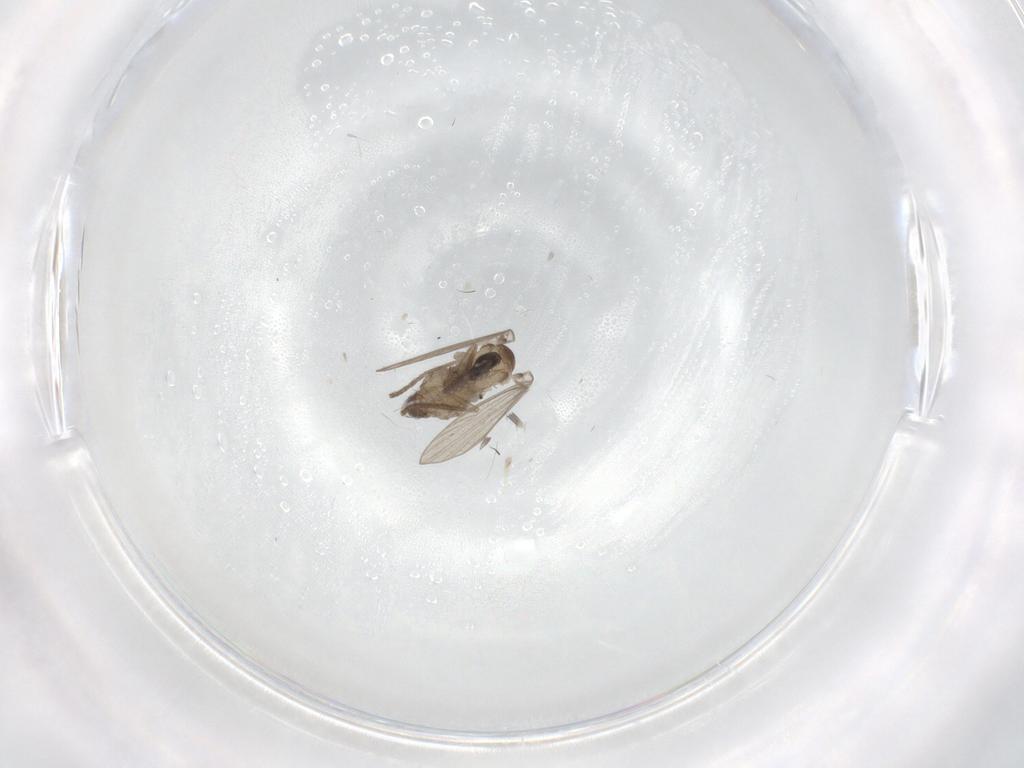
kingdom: Animalia
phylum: Arthropoda
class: Insecta
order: Diptera
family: Psychodidae
